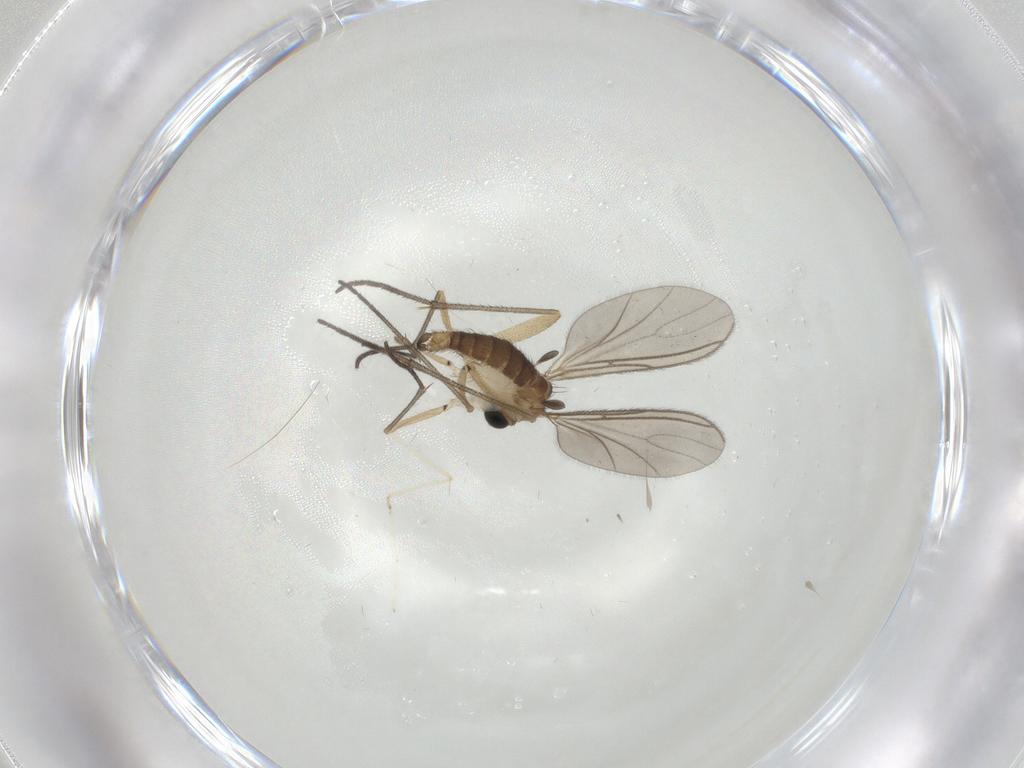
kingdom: Animalia
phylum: Arthropoda
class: Insecta
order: Diptera
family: Sciaridae
